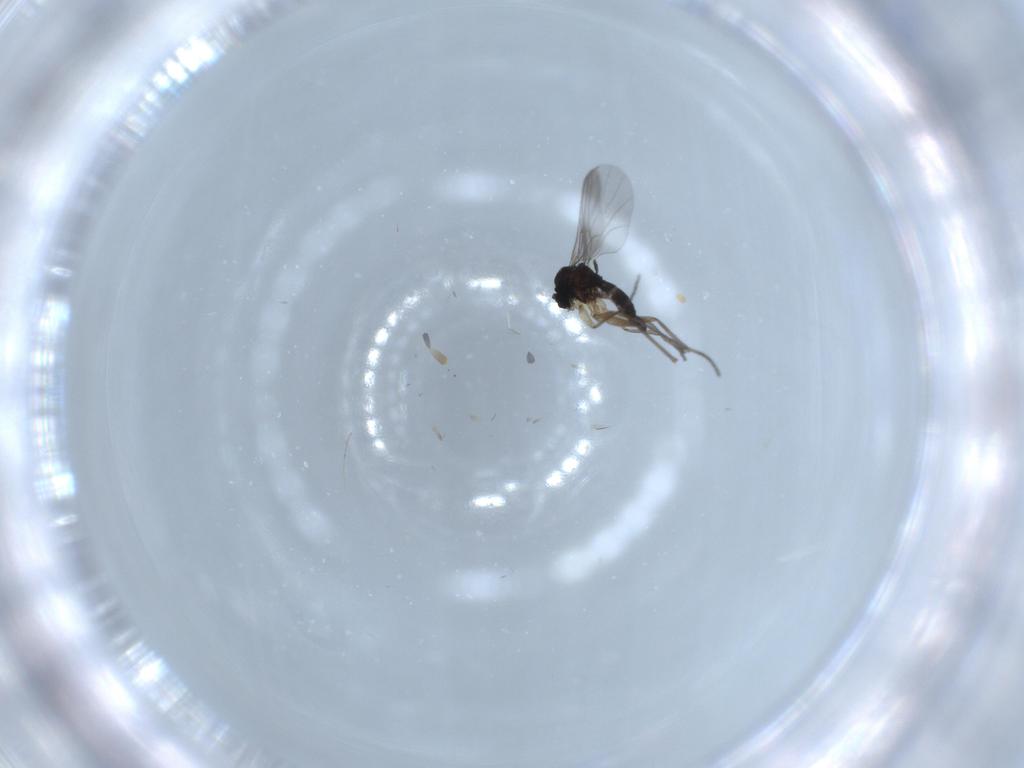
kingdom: Animalia
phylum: Arthropoda
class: Insecta
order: Diptera
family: Sciaridae
